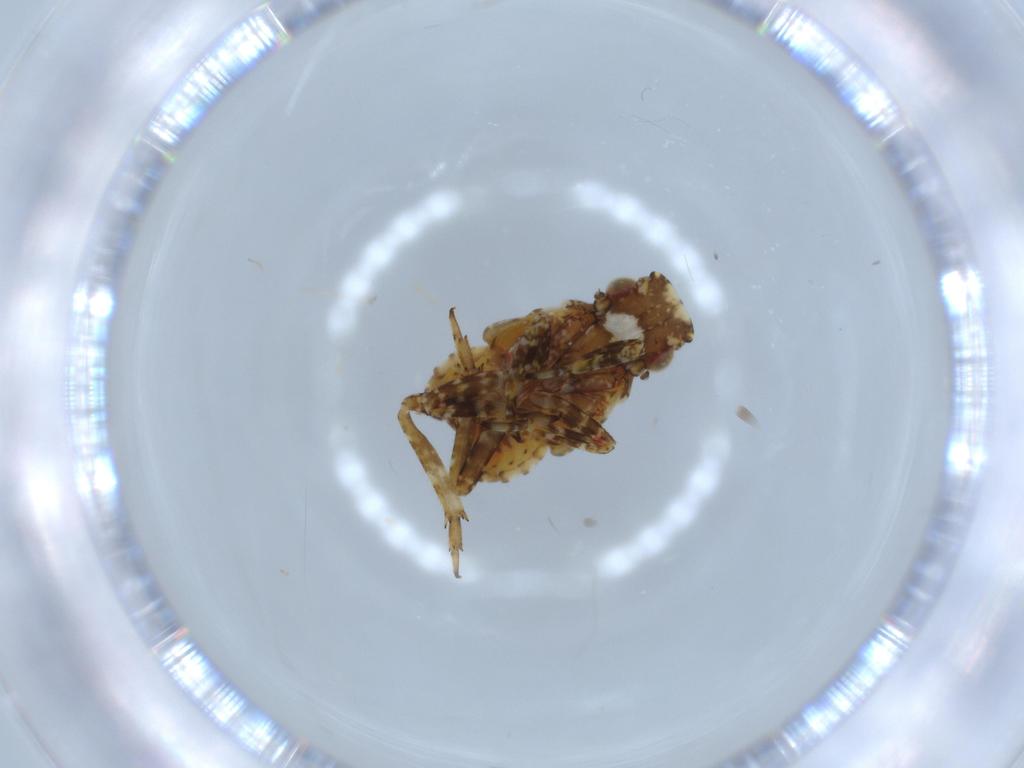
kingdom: Animalia
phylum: Arthropoda
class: Insecta
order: Hemiptera
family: Fulgoridae
